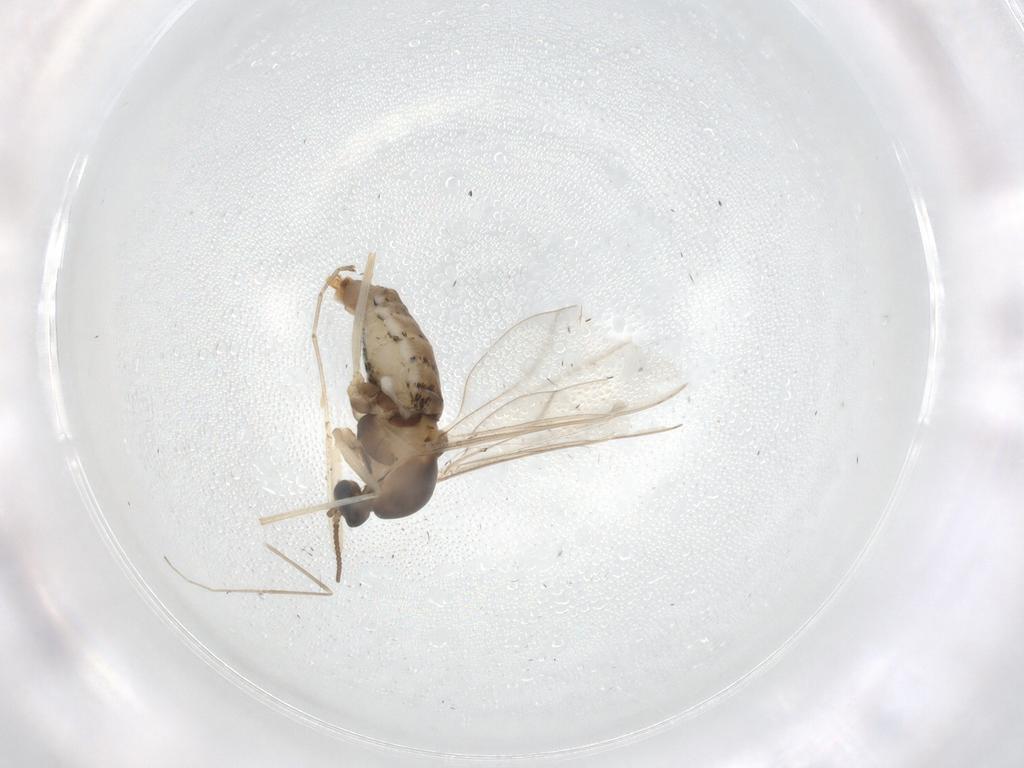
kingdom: Animalia
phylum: Arthropoda
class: Insecta
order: Diptera
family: Cecidomyiidae
